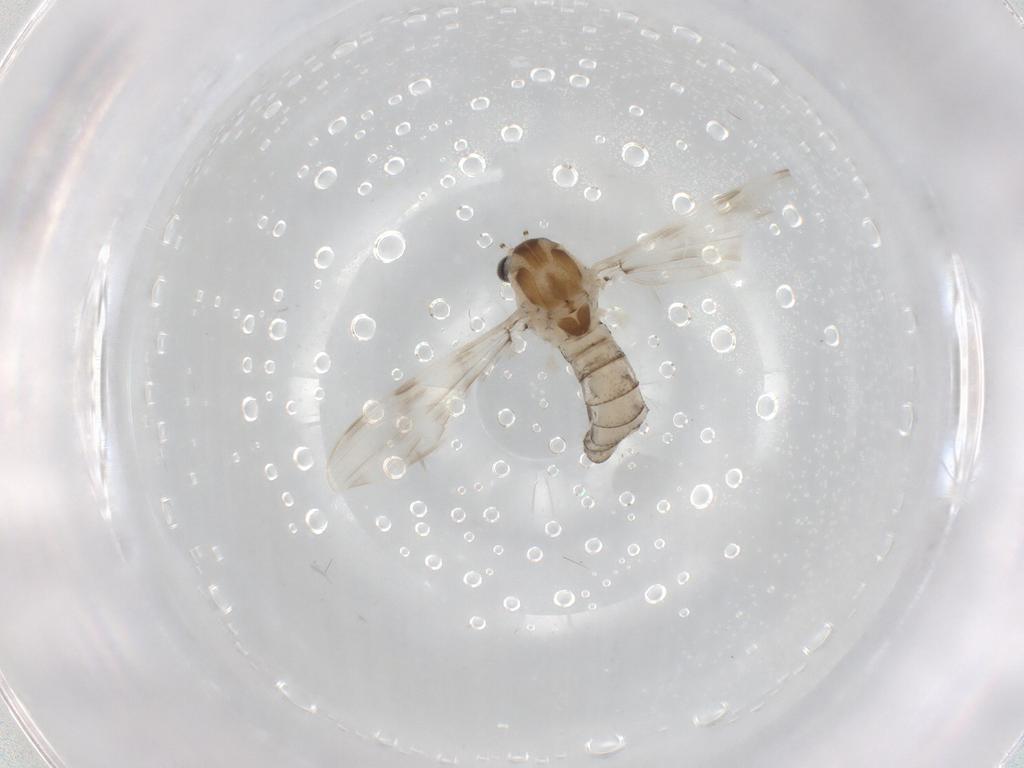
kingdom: Animalia
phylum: Arthropoda
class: Insecta
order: Diptera
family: Chaoboridae
